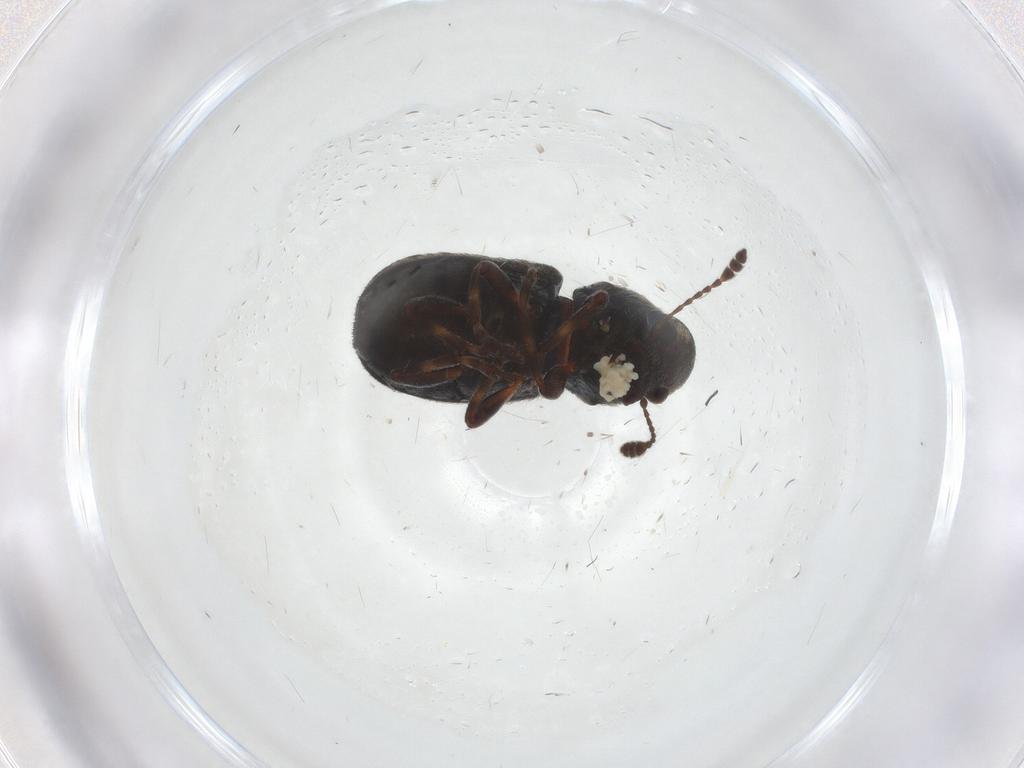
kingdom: Animalia
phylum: Arthropoda
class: Insecta
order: Coleoptera
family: Anthribidae
